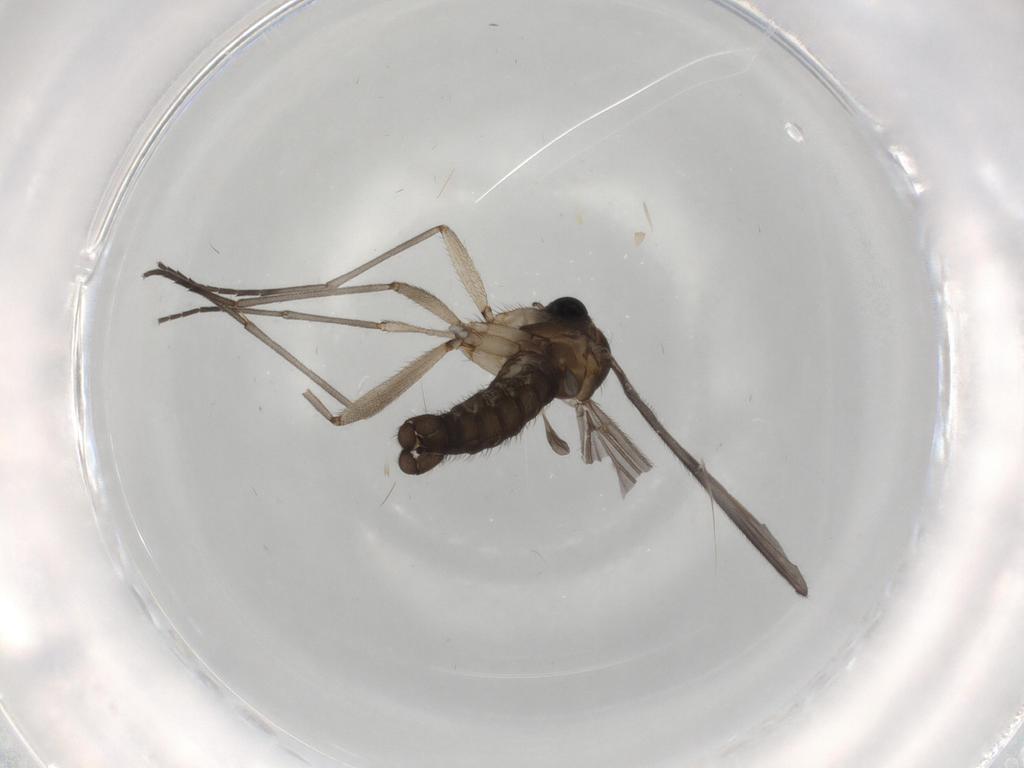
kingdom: Animalia
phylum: Arthropoda
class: Insecta
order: Diptera
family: Sciaridae
